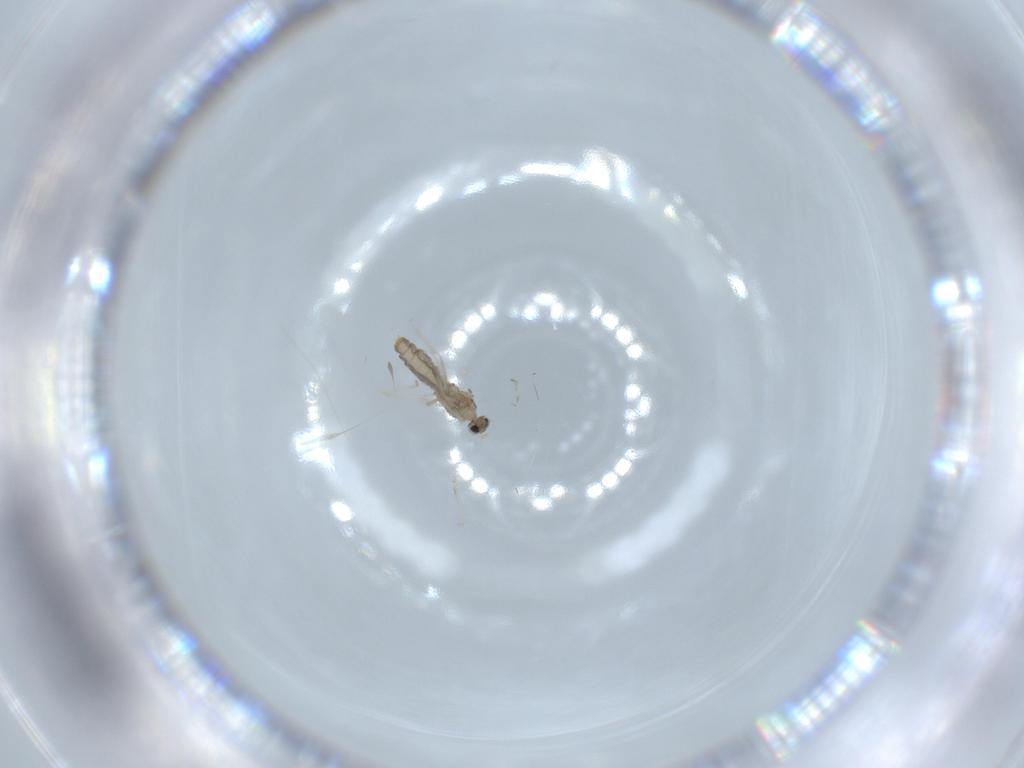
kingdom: Animalia
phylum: Arthropoda
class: Insecta
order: Diptera
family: Cecidomyiidae
